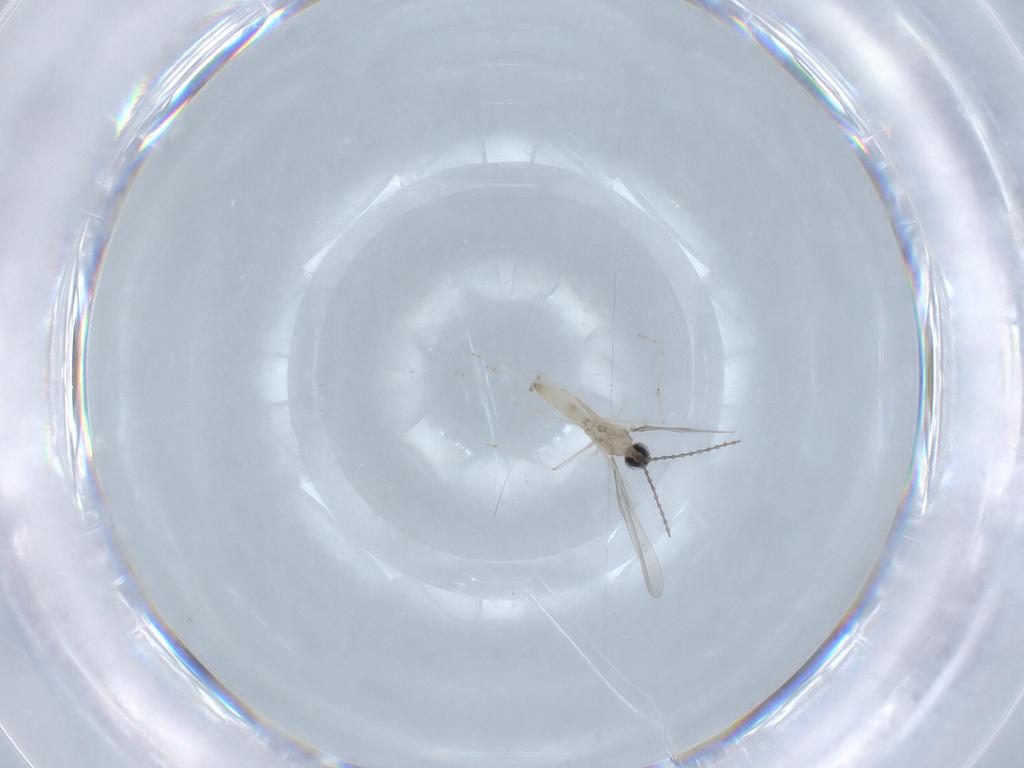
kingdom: Animalia
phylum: Arthropoda
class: Insecta
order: Diptera
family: Cecidomyiidae
